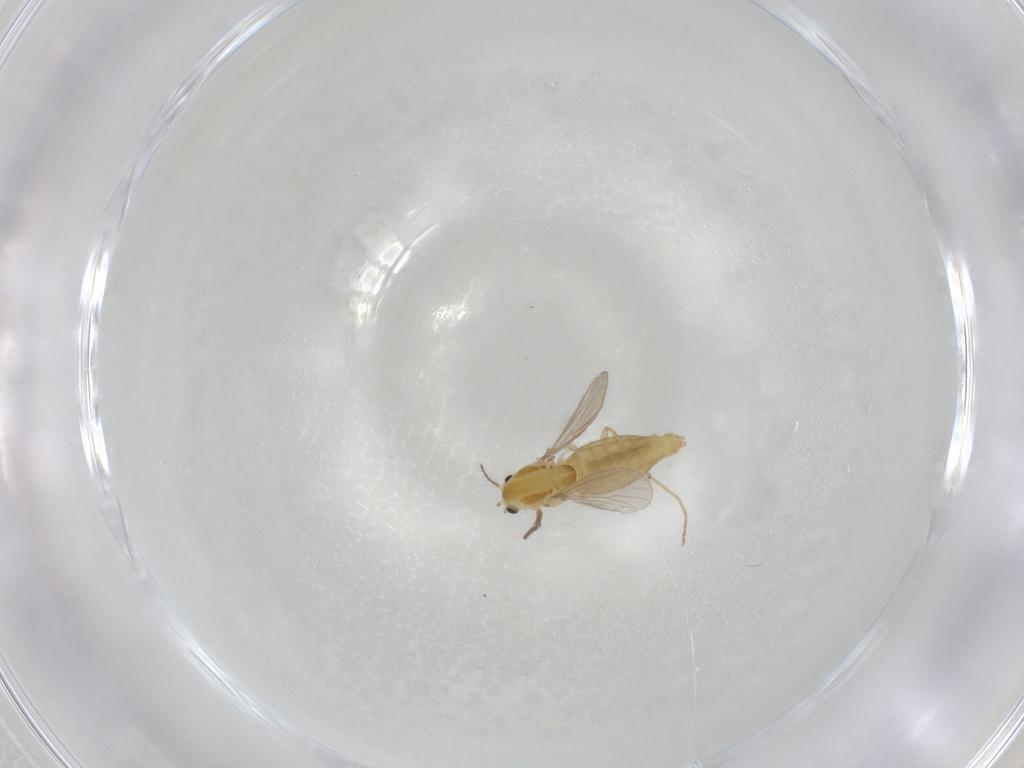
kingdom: Animalia
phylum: Arthropoda
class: Insecta
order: Diptera
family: Chironomidae
